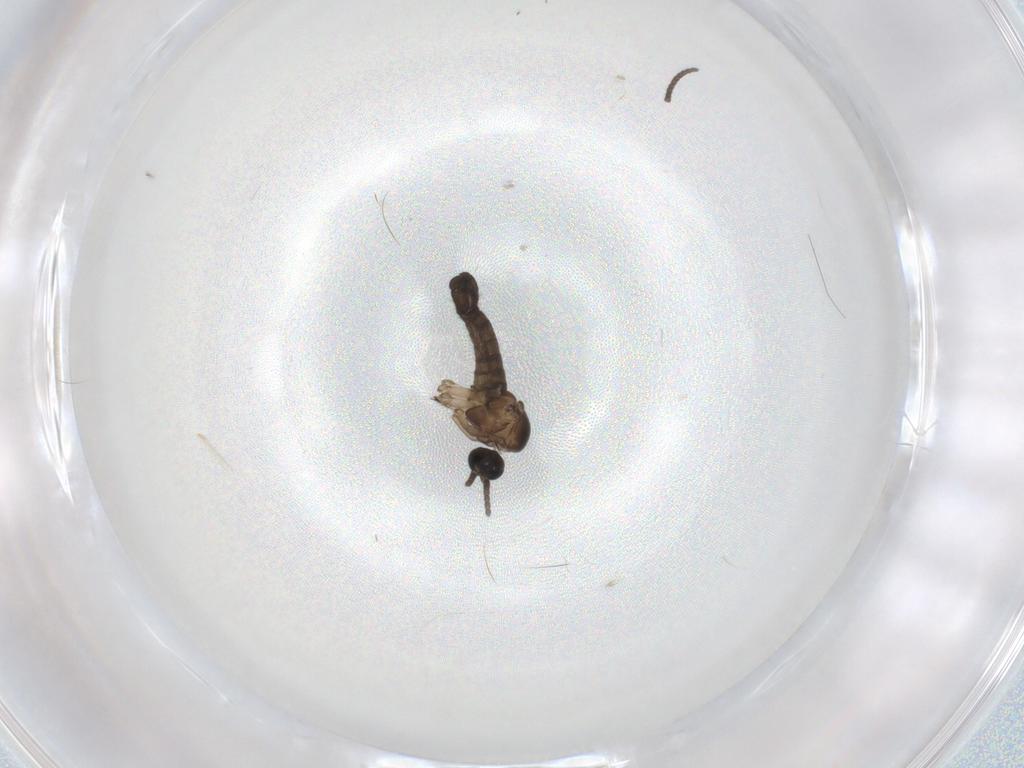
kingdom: Animalia
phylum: Arthropoda
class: Insecta
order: Diptera
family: Sciaridae
